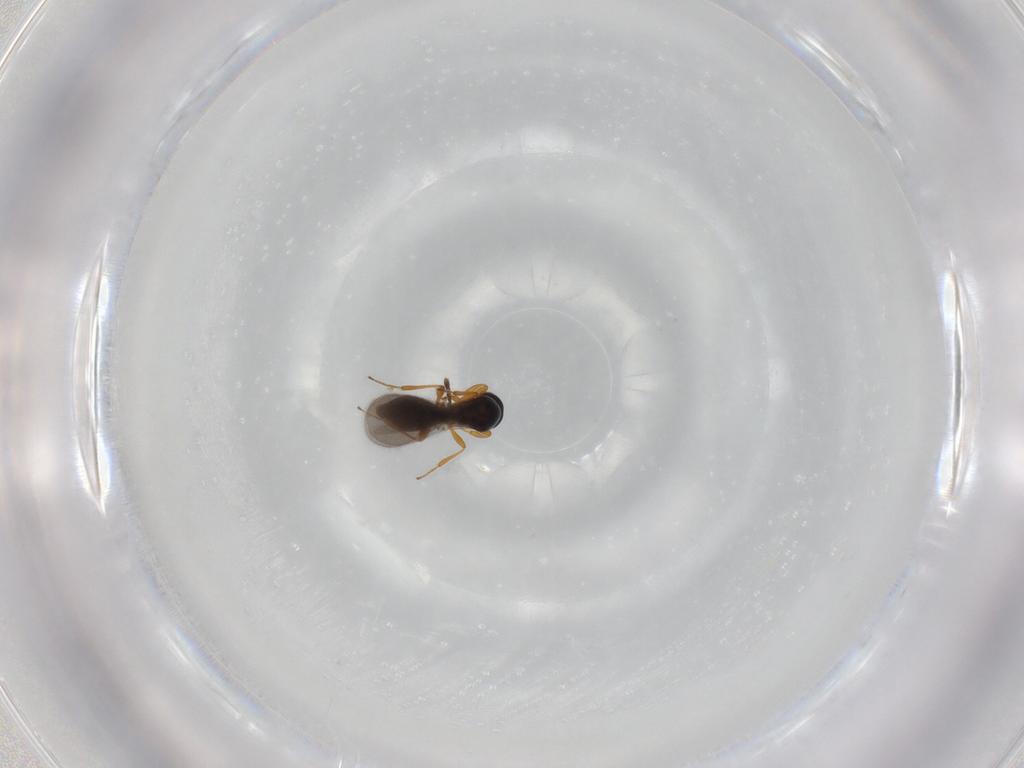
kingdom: Animalia
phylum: Arthropoda
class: Insecta
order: Hymenoptera
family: Platygastridae
